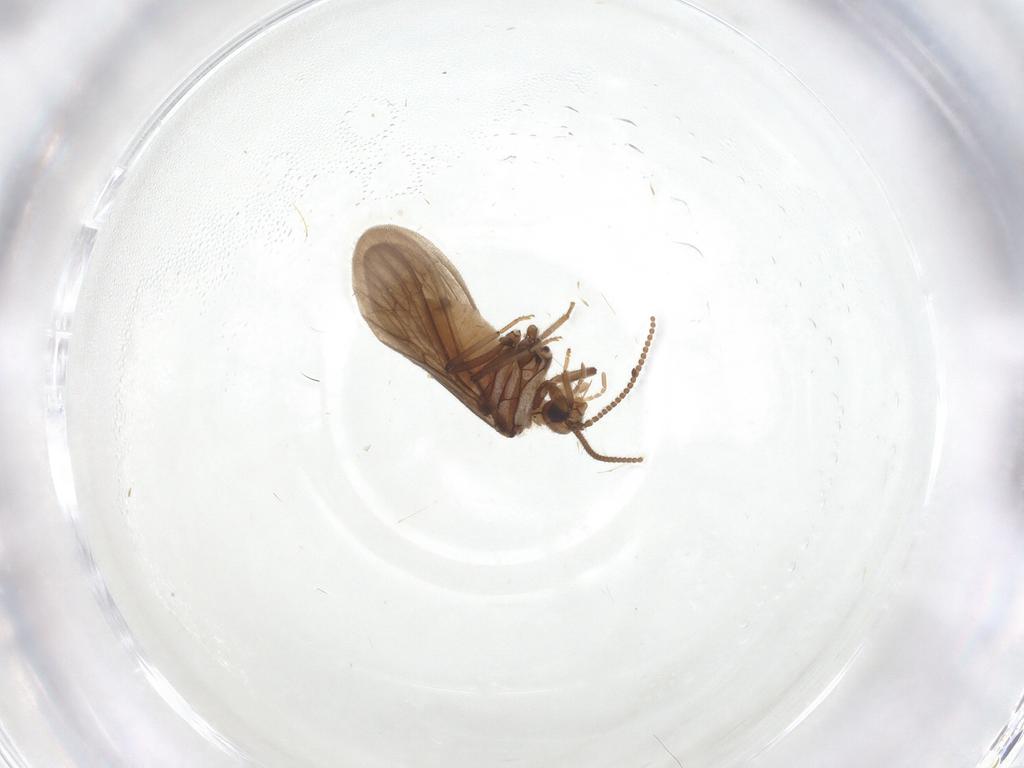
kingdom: Animalia
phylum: Arthropoda
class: Insecta
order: Neuroptera
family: Coniopterygidae
